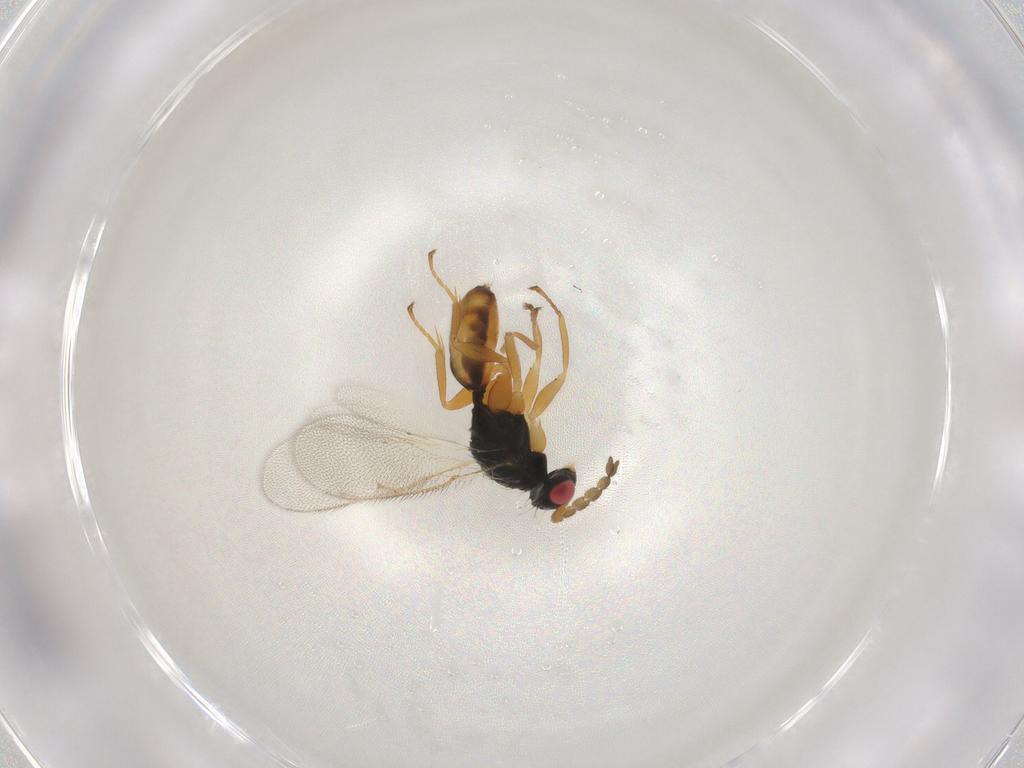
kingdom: Animalia
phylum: Arthropoda
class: Insecta
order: Hymenoptera
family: Eulophidae
